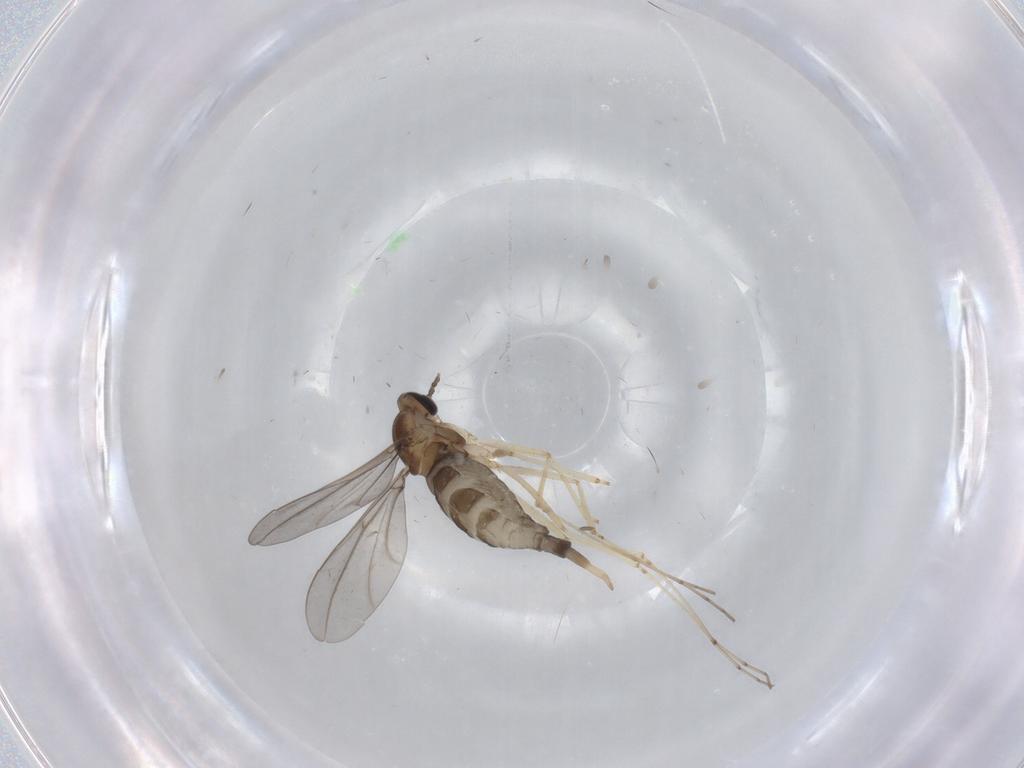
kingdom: Animalia
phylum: Arthropoda
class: Insecta
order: Diptera
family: Cecidomyiidae
